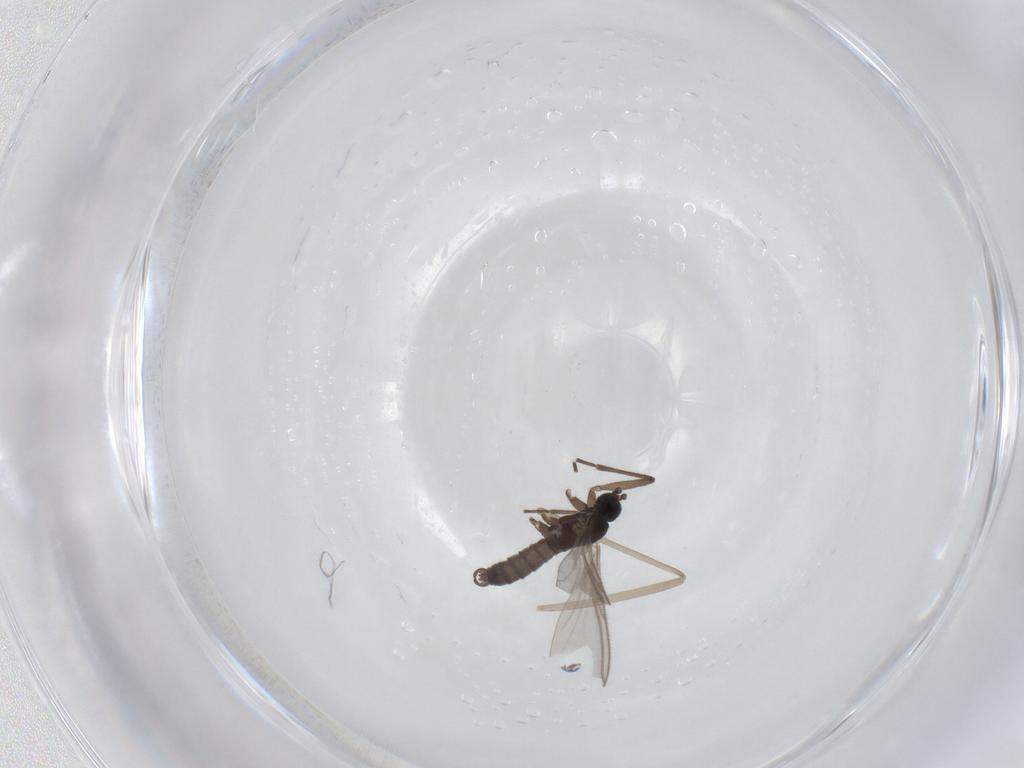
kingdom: Animalia
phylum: Arthropoda
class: Insecta
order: Diptera
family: Sciaridae
